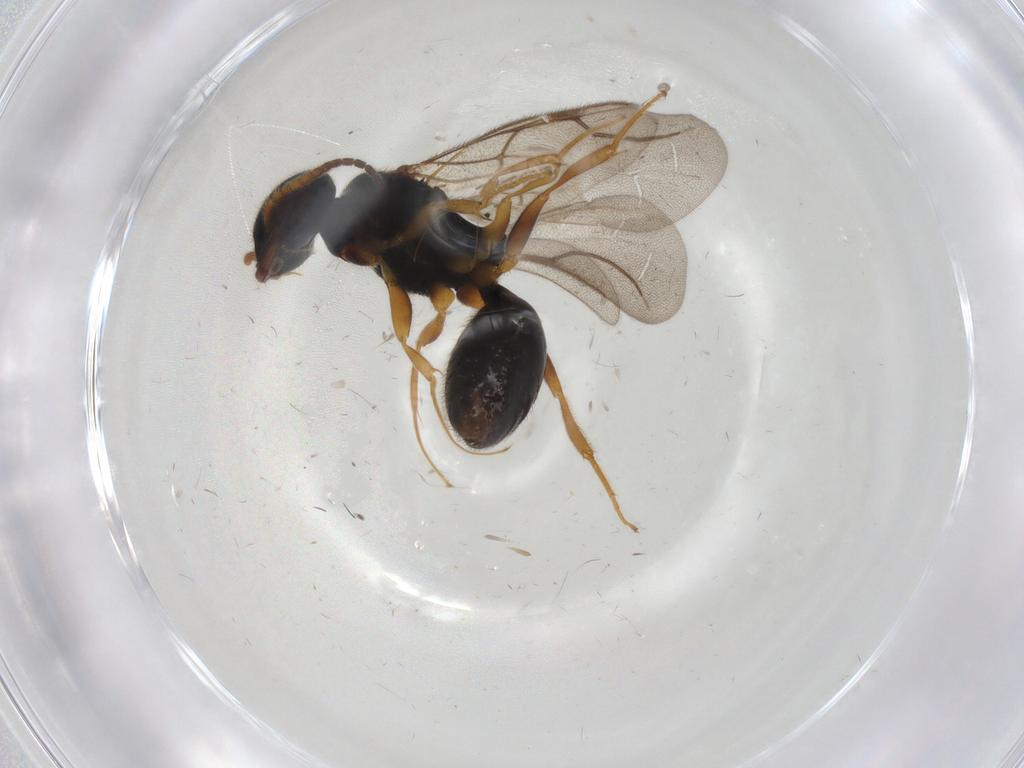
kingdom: Animalia
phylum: Arthropoda
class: Insecta
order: Hymenoptera
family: Bethylidae
